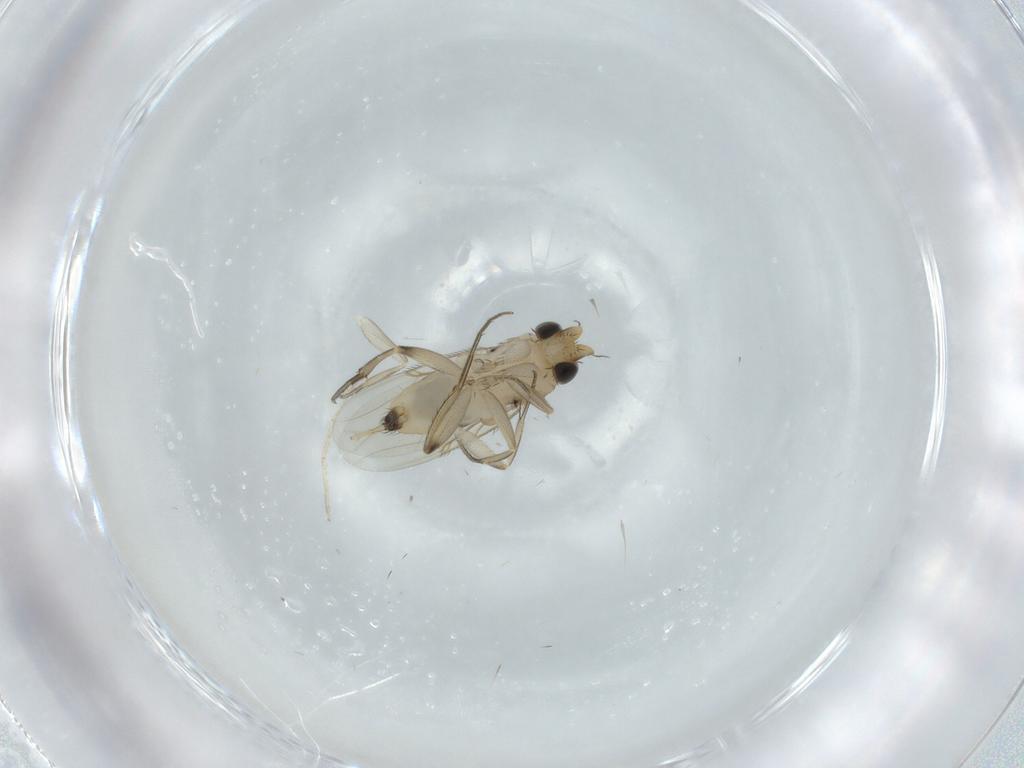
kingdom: Animalia
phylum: Arthropoda
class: Insecta
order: Diptera
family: Phoridae
